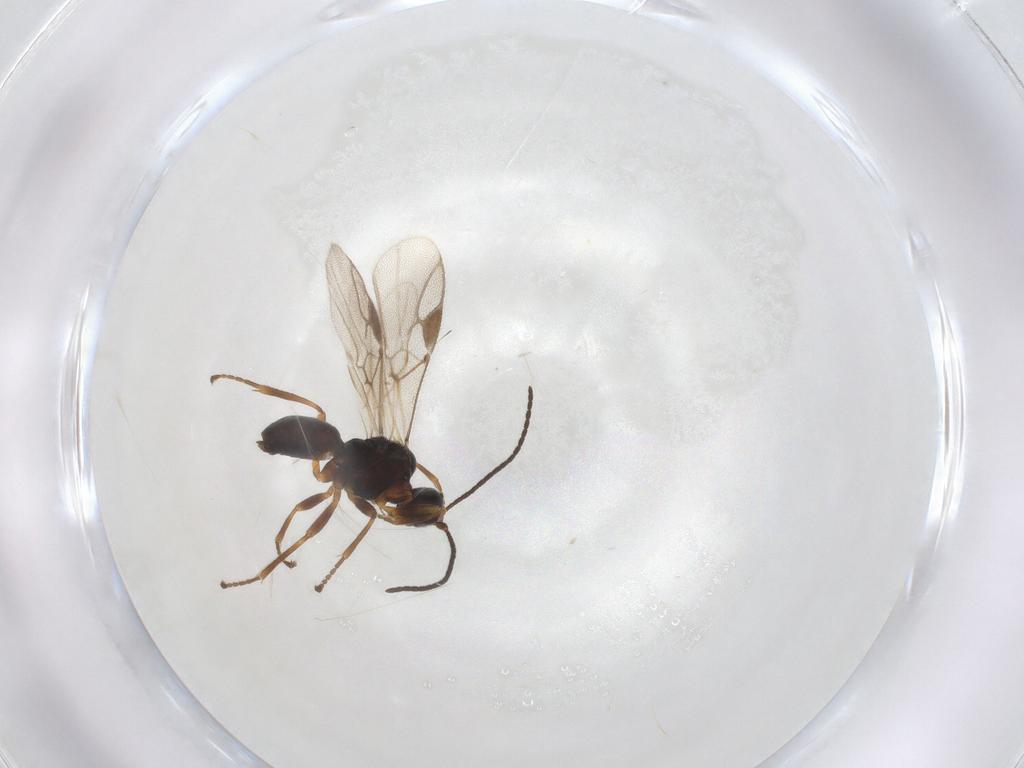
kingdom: Animalia
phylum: Arthropoda
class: Insecta
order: Hymenoptera
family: Braconidae
